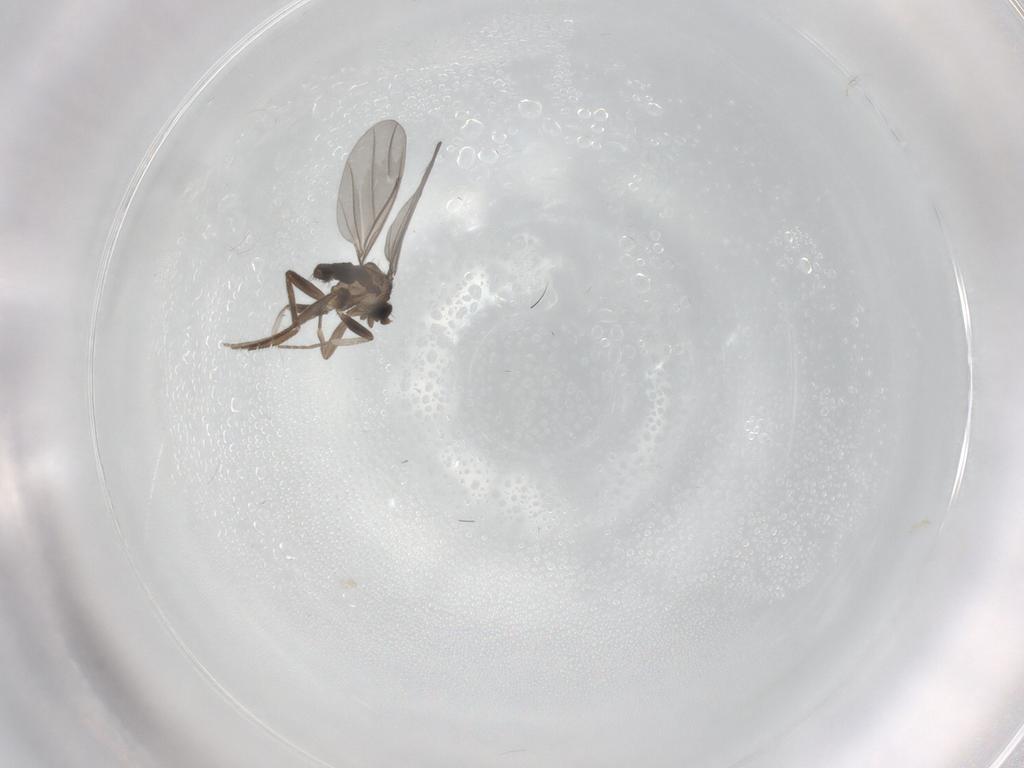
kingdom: Animalia
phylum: Arthropoda
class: Insecta
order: Diptera
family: Phoridae
